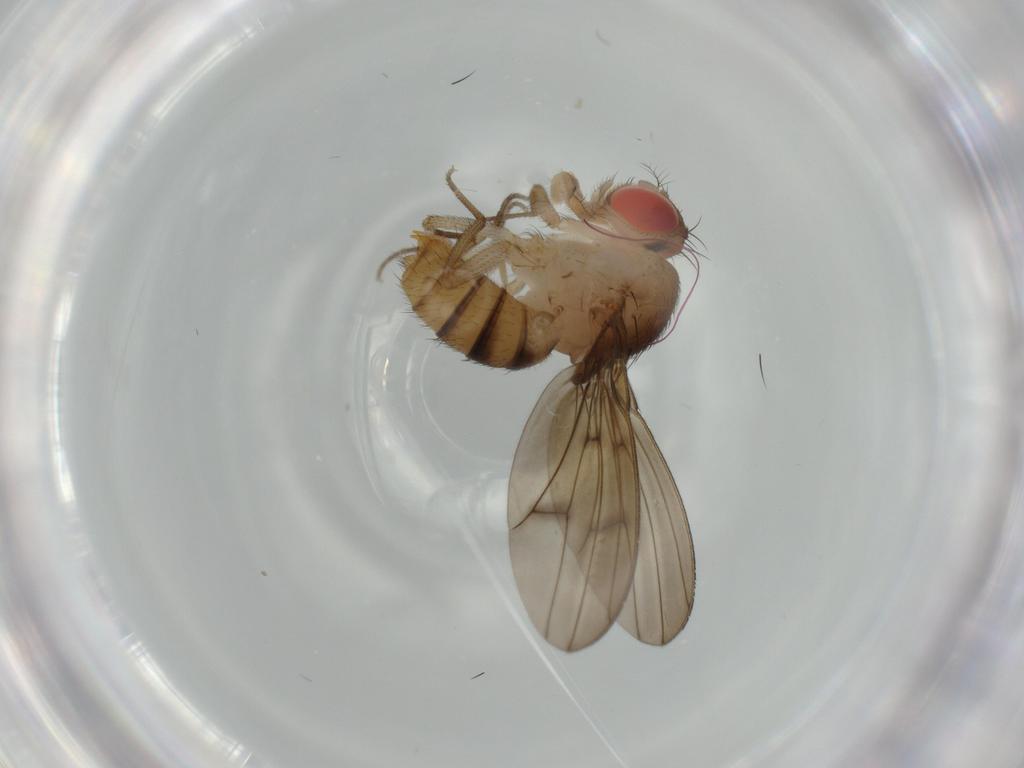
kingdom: Animalia
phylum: Arthropoda
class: Insecta
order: Diptera
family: Drosophilidae
